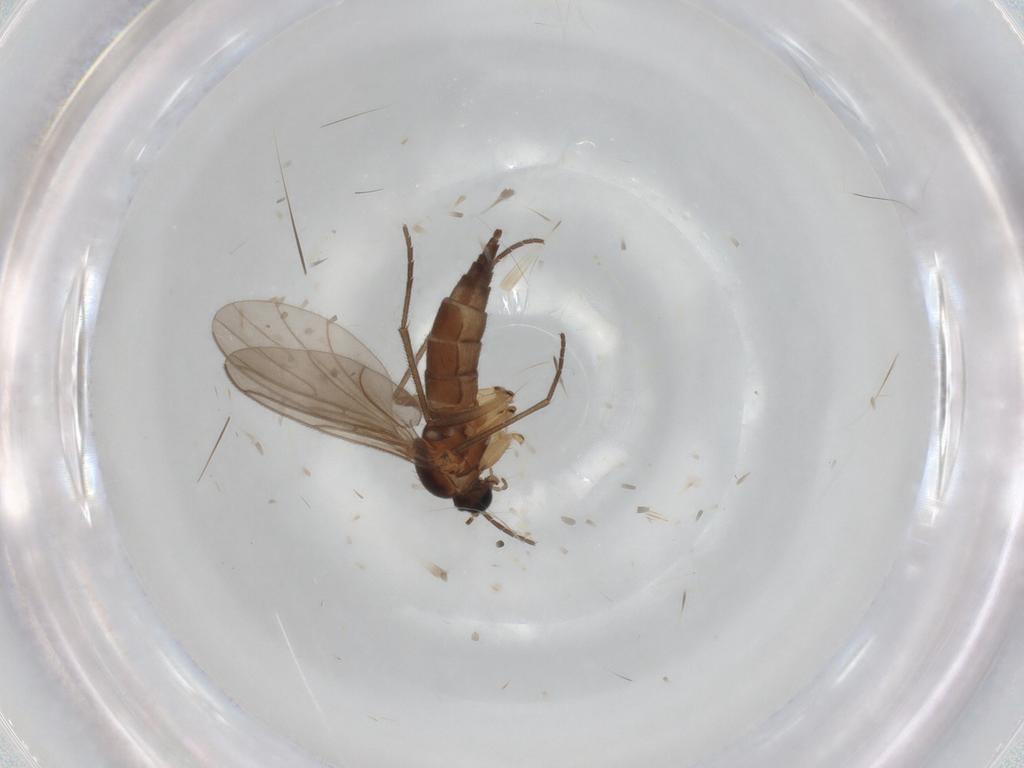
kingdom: Animalia
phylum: Arthropoda
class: Insecta
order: Diptera
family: Sciaridae
